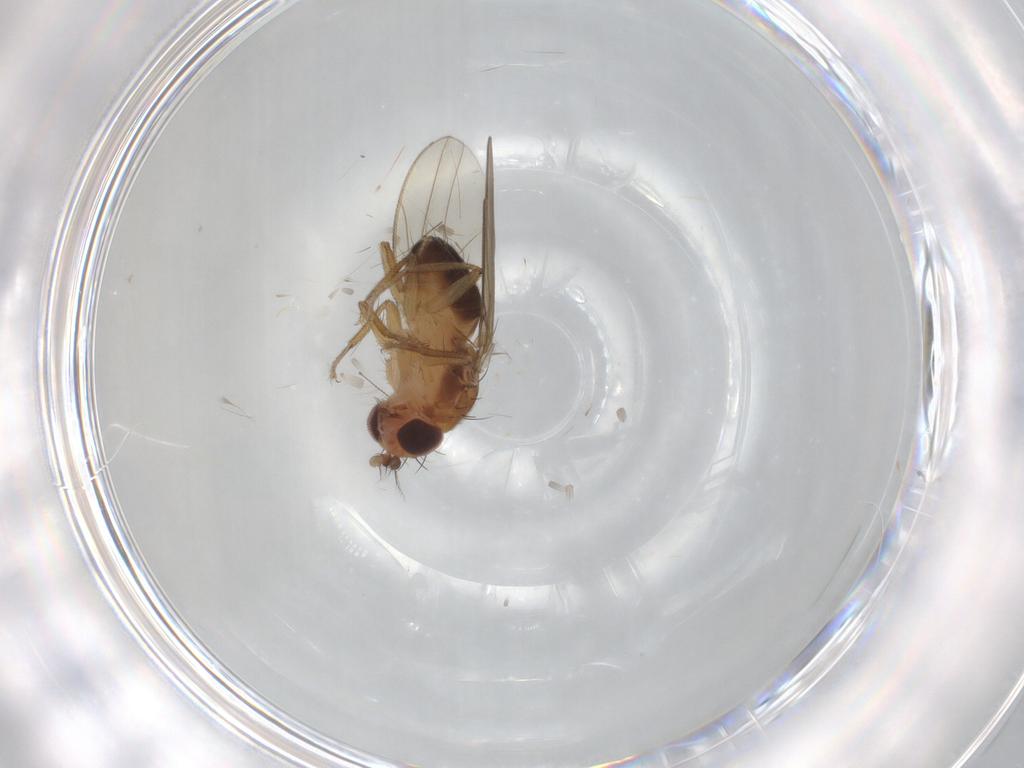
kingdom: Animalia
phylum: Arthropoda
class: Insecta
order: Diptera
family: Drosophilidae
